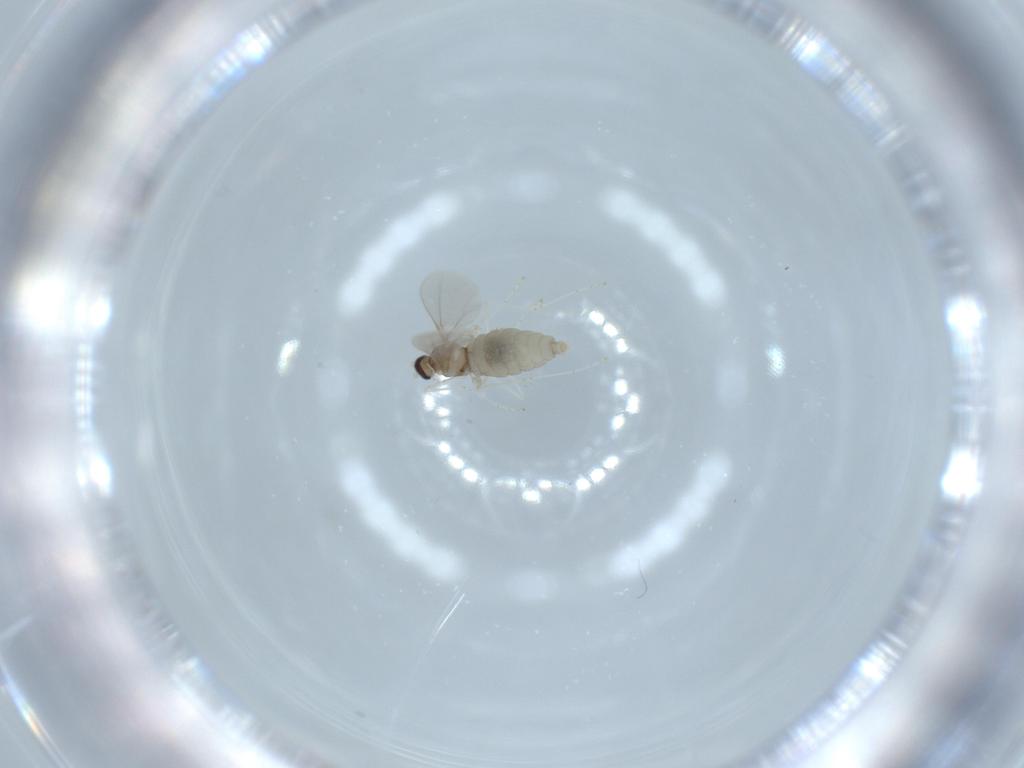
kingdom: Animalia
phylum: Arthropoda
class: Insecta
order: Diptera
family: Cecidomyiidae
